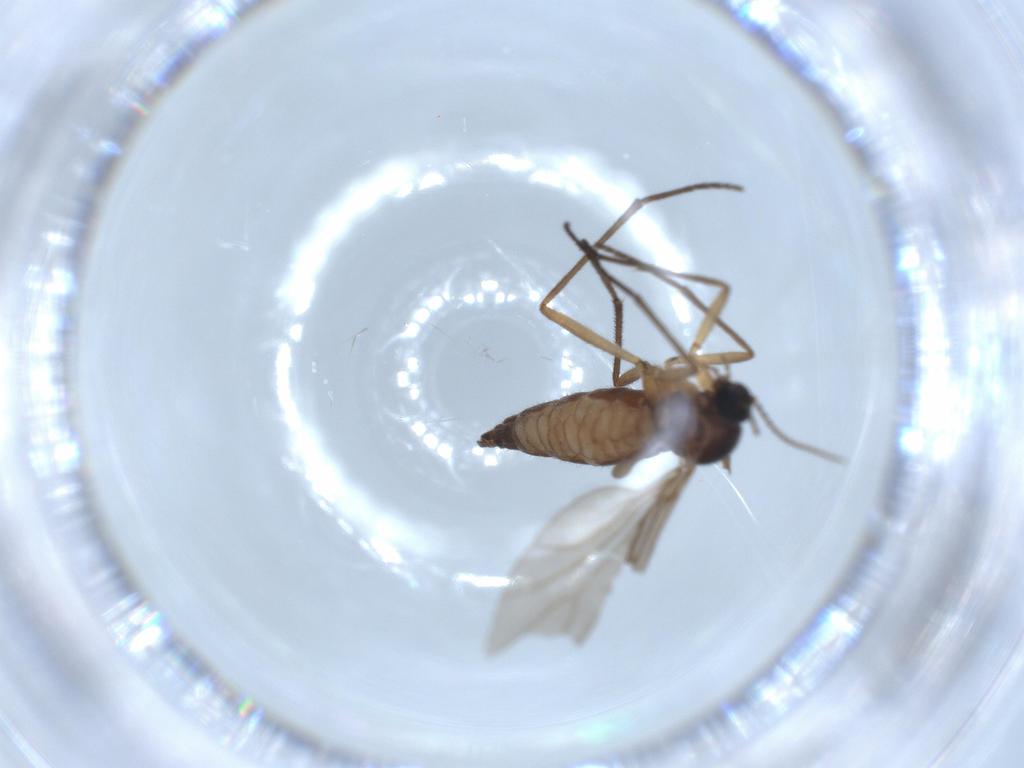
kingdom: Animalia
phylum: Arthropoda
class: Insecta
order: Diptera
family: Sciaridae
